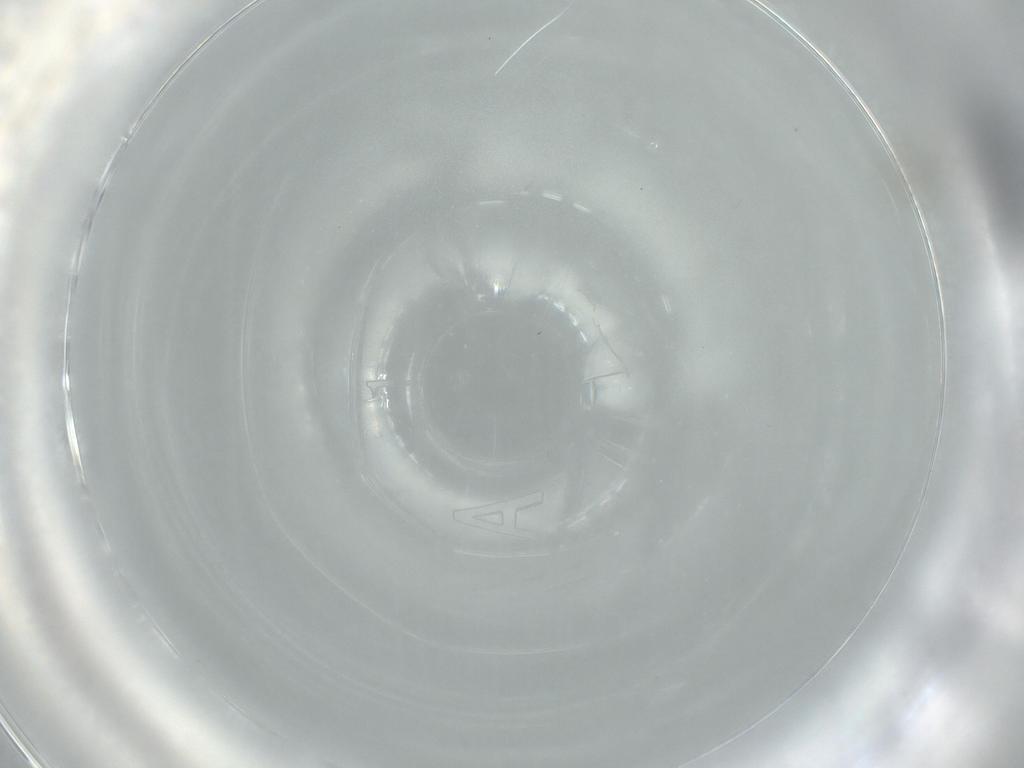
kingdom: Animalia
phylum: Arthropoda
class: Insecta
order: Diptera
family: Cecidomyiidae
